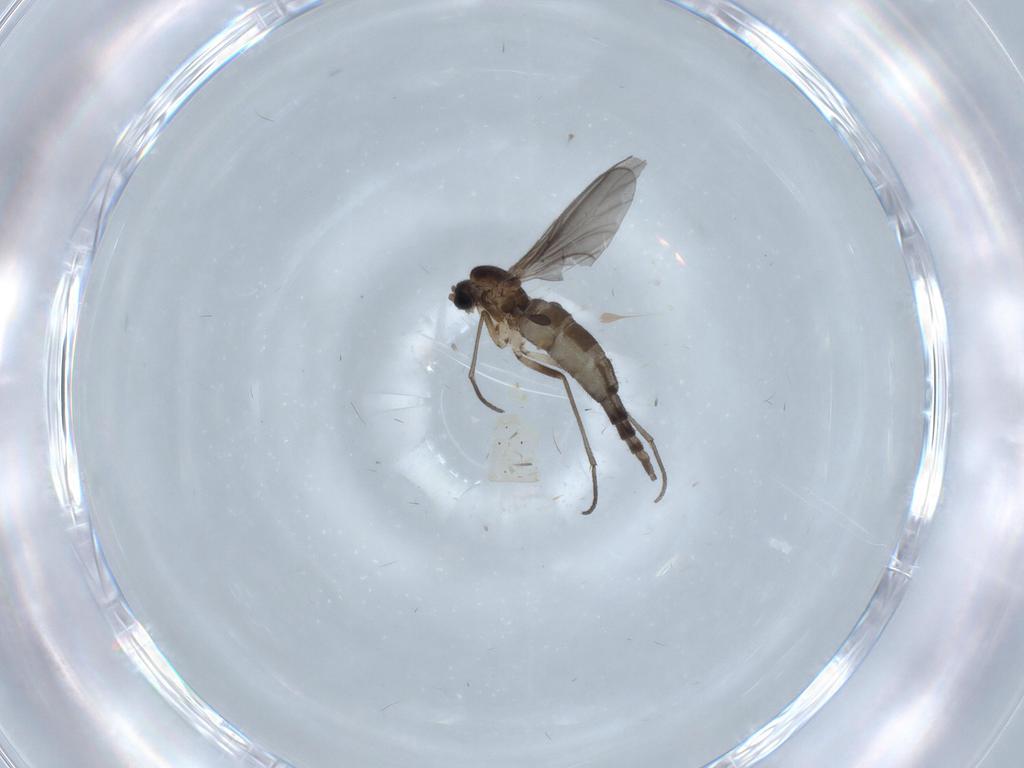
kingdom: Animalia
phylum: Arthropoda
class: Insecta
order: Diptera
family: Sciaridae
